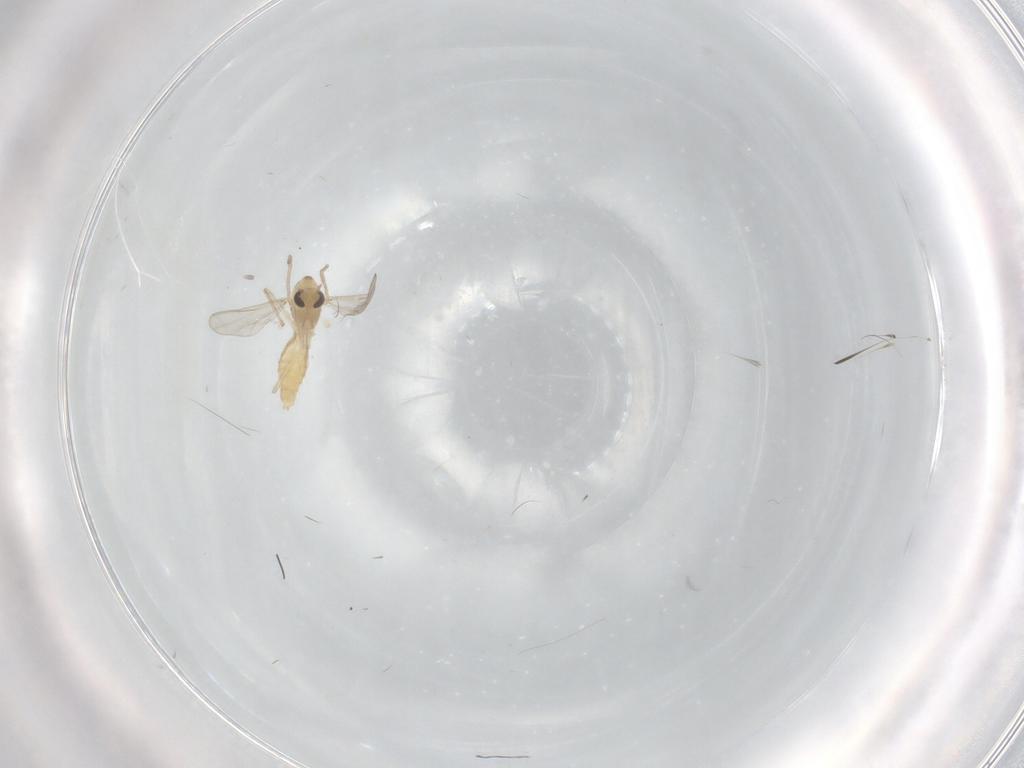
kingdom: Animalia
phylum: Arthropoda
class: Insecta
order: Diptera
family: Chironomidae
